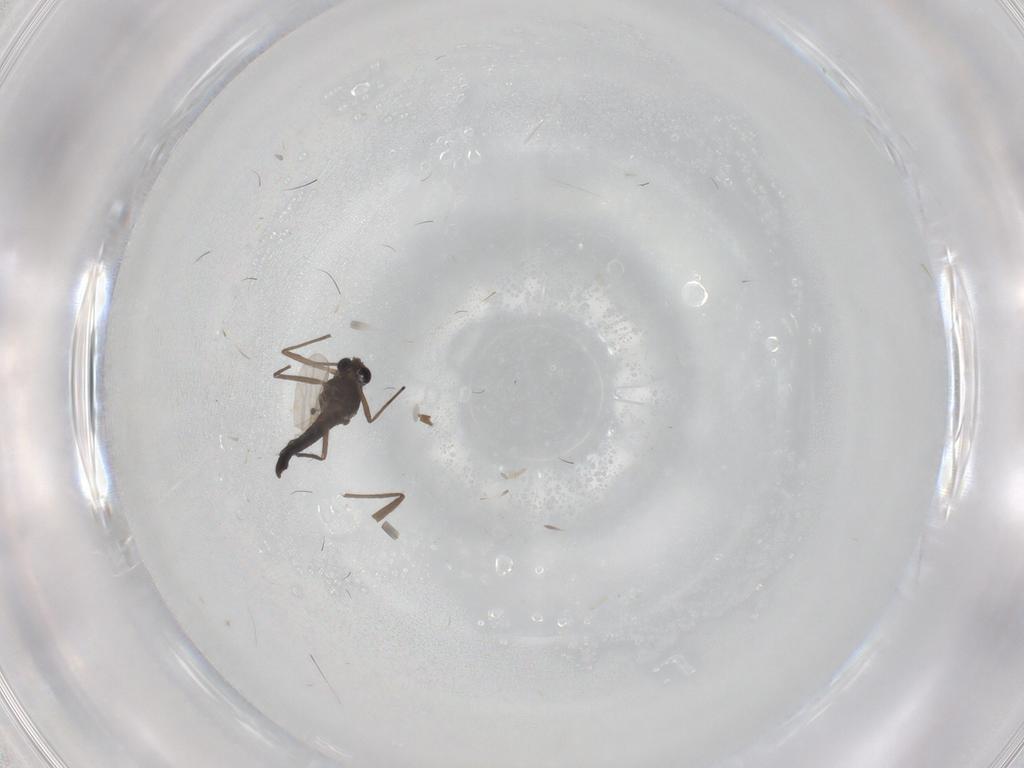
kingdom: Animalia
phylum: Arthropoda
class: Insecta
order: Diptera
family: Chironomidae
